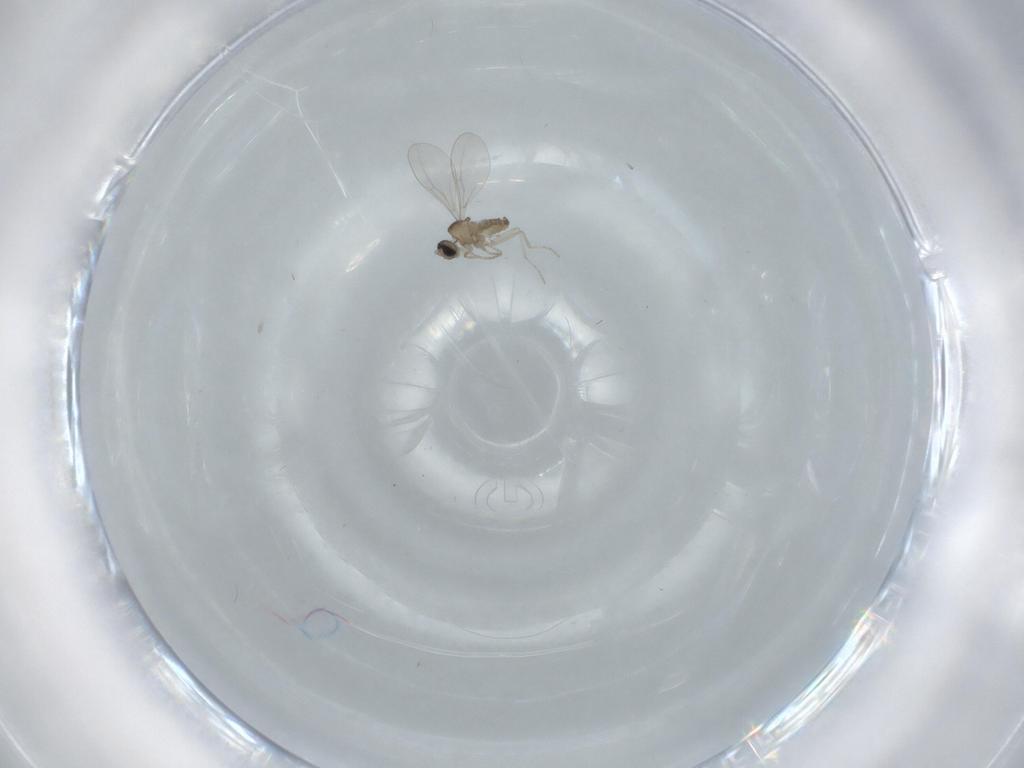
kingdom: Animalia
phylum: Arthropoda
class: Insecta
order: Diptera
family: Cecidomyiidae
